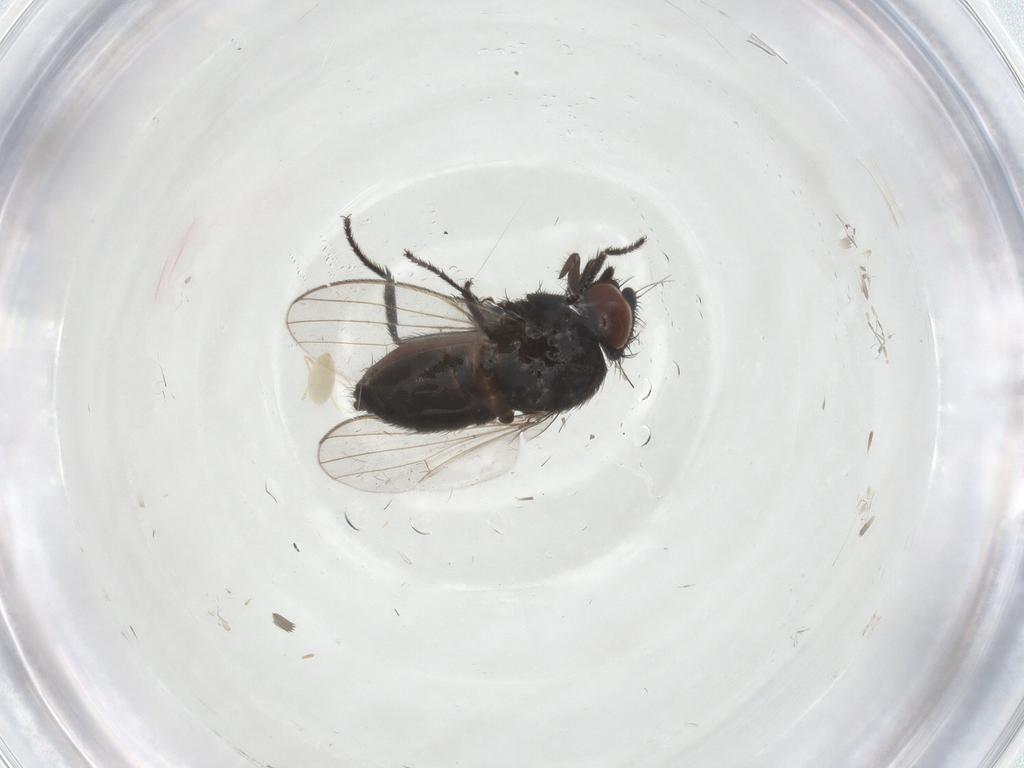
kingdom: Animalia
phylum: Arthropoda
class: Insecta
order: Diptera
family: Milichiidae
